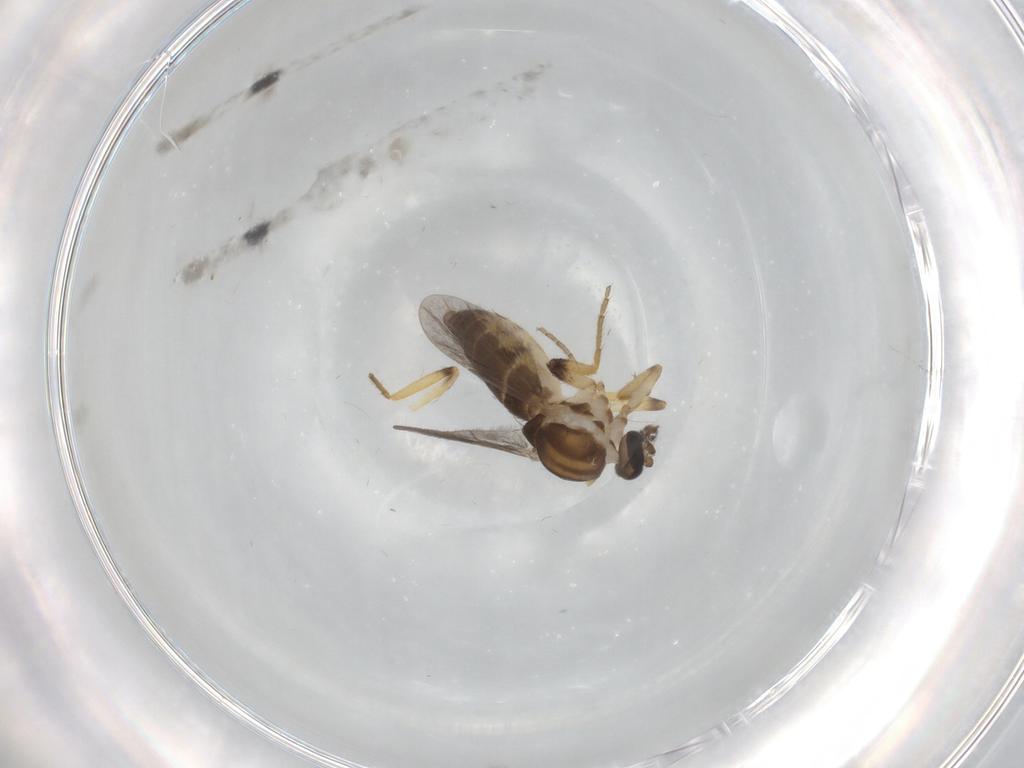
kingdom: Animalia
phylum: Arthropoda
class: Insecta
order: Diptera
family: Ceratopogonidae
